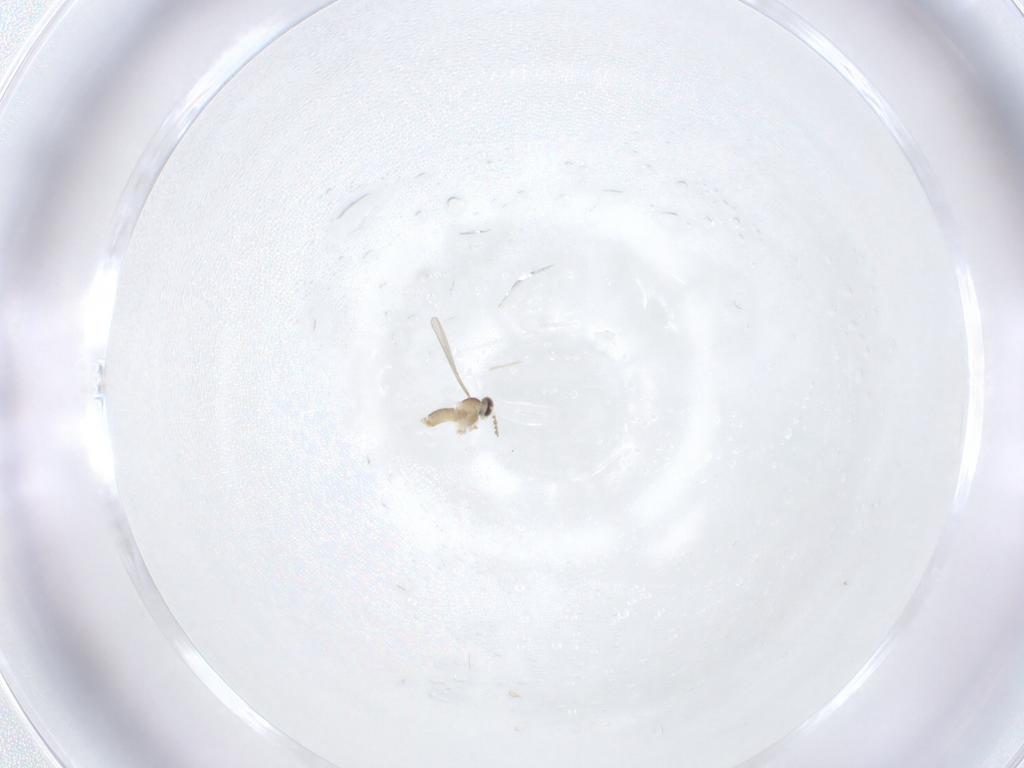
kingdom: Animalia
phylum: Arthropoda
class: Insecta
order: Diptera
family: Cecidomyiidae
